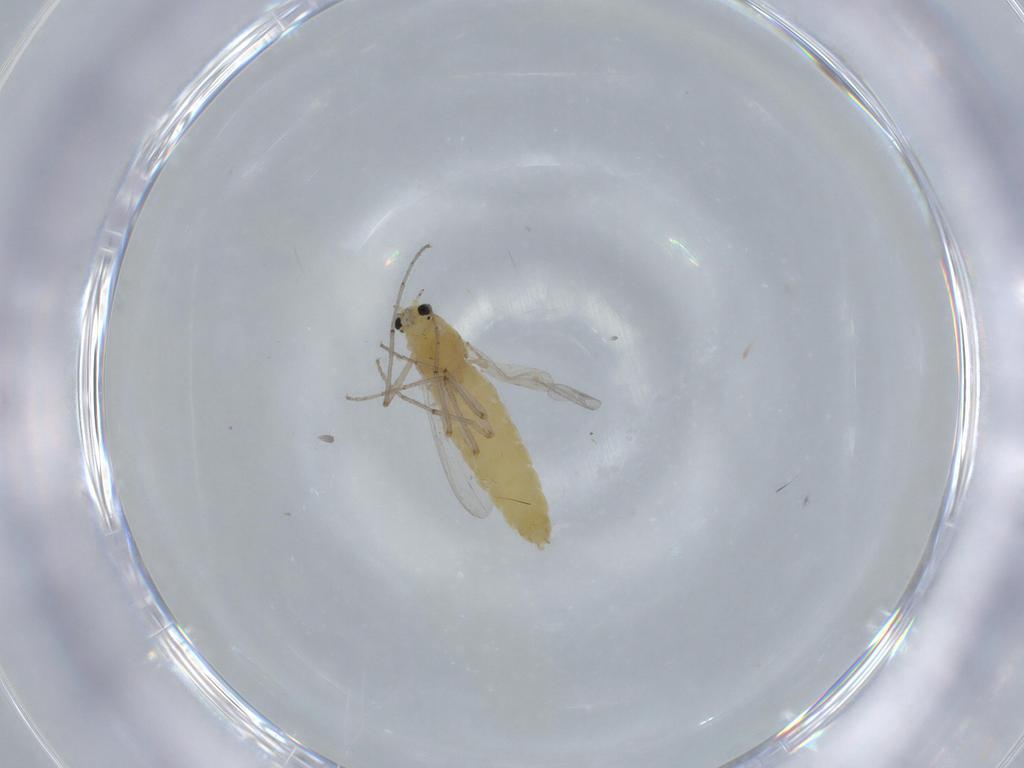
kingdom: Animalia
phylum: Arthropoda
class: Insecta
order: Diptera
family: Chironomidae
